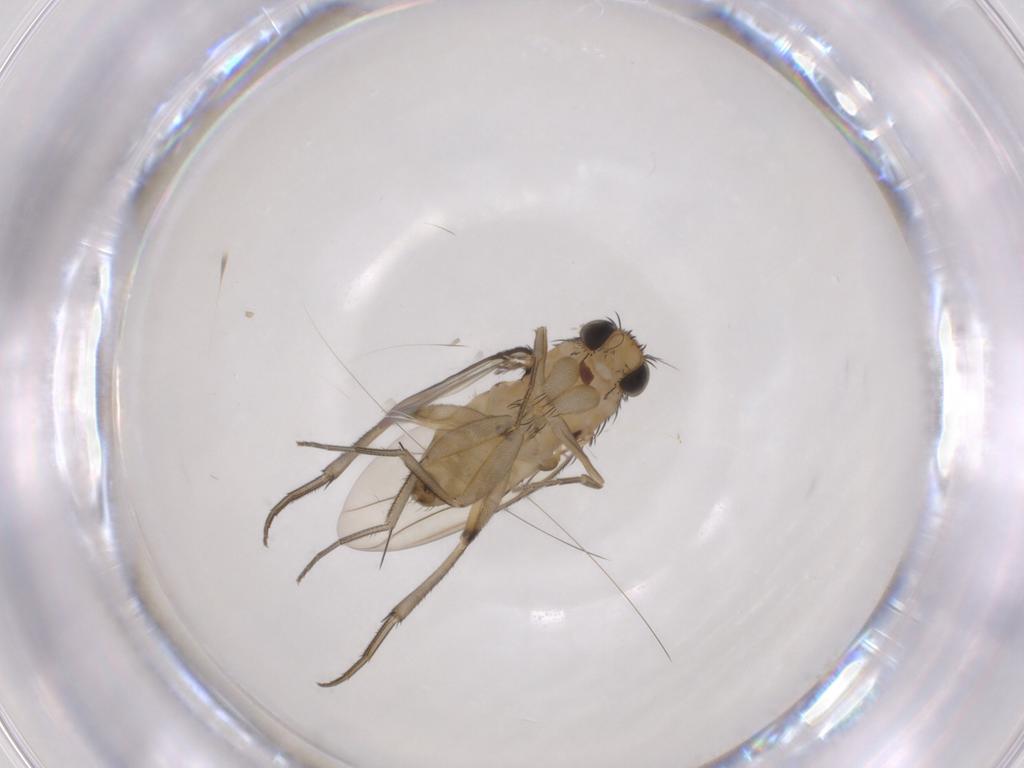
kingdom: Animalia
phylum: Arthropoda
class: Insecta
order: Diptera
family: Phoridae
